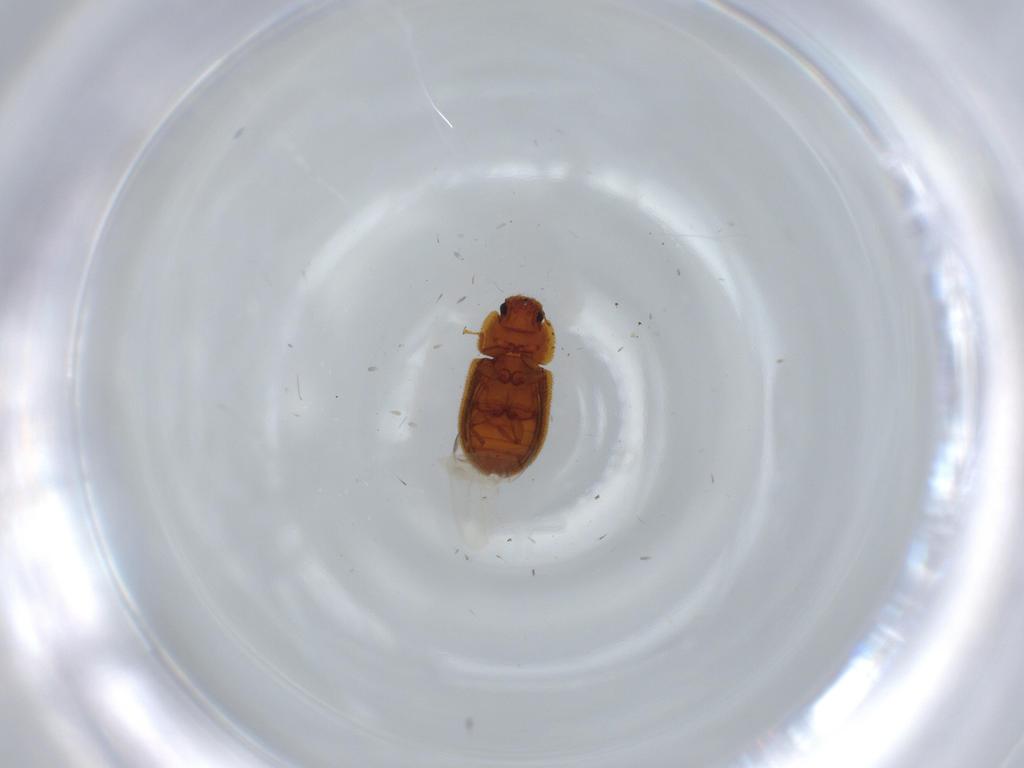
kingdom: Animalia
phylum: Arthropoda
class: Insecta
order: Coleoptera
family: Zopheridae
